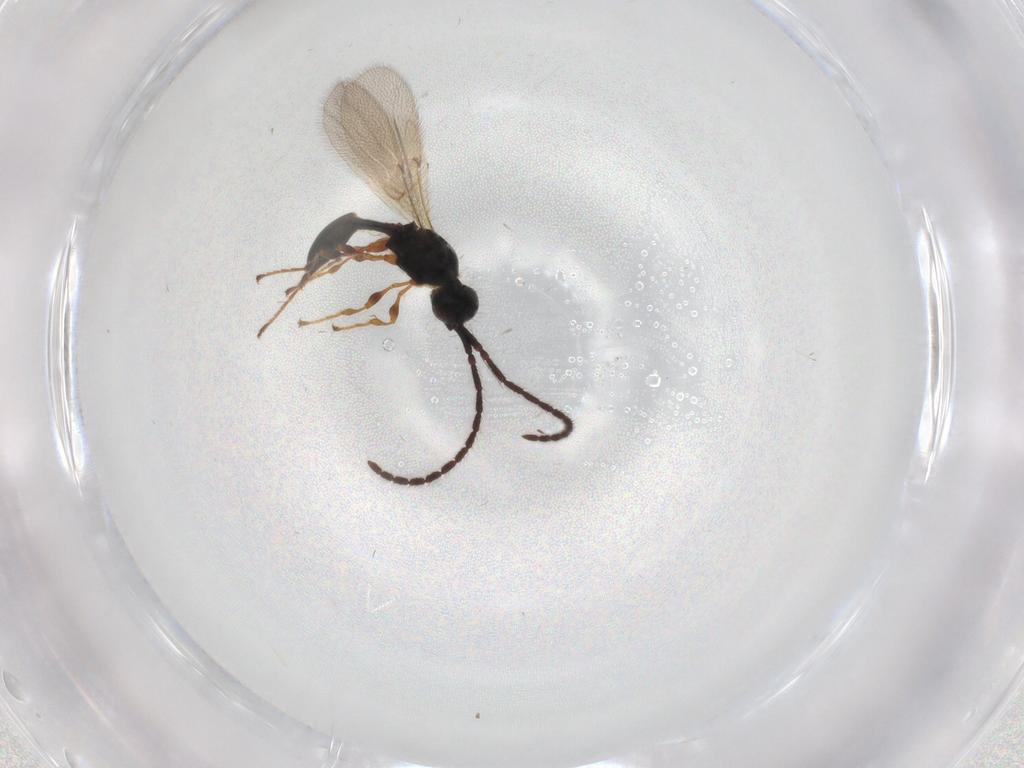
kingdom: Animalia
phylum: Arthropoda
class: Insecta
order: Hymenoptera
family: Diapriidae
